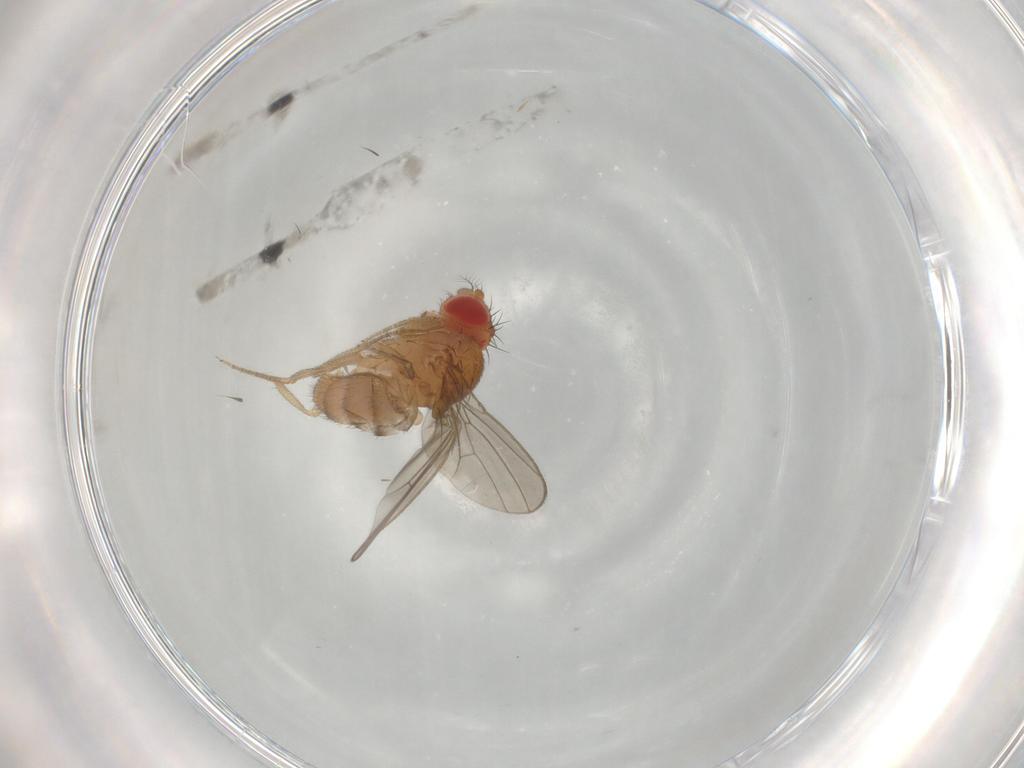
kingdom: Animalia
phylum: Arthropoda
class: Insecta
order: Diptera
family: Drosophilidae
